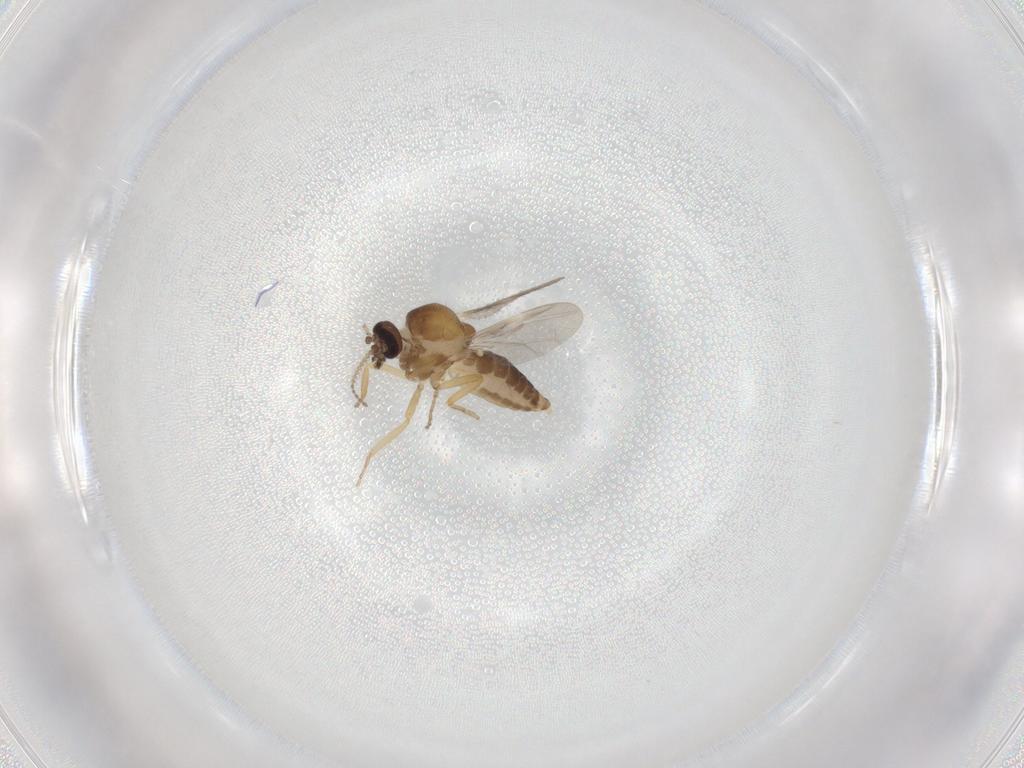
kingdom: Animalia
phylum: Arthropoda
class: Insecta
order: Diptera
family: Ceratopogonidae
